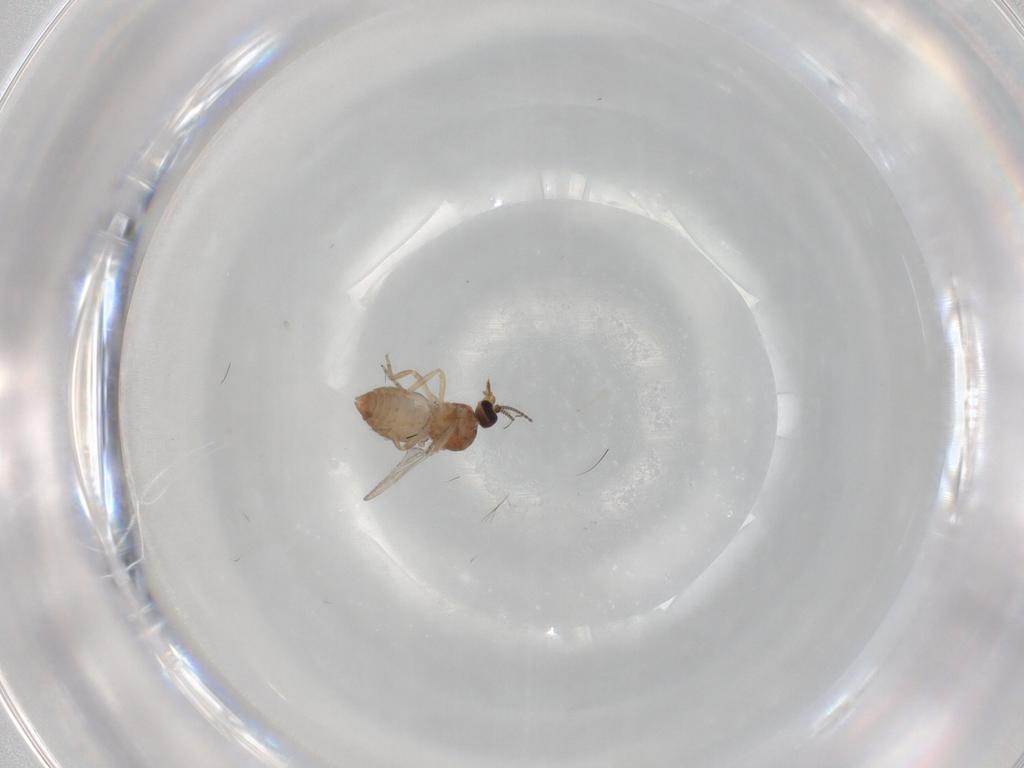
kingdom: Animalia
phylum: Arthropoda
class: Insecta
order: Diptera
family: Ceratopogonidae
